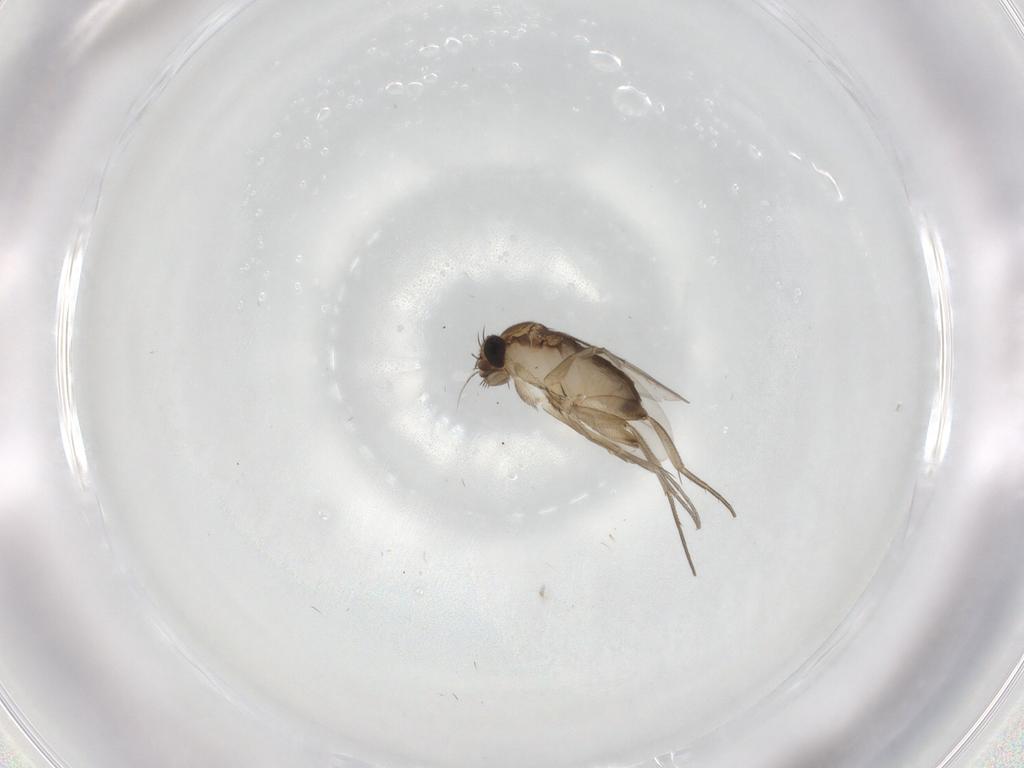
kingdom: Animalia
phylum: Arthropoda
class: Insecta
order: Diptera
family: Phoridae
